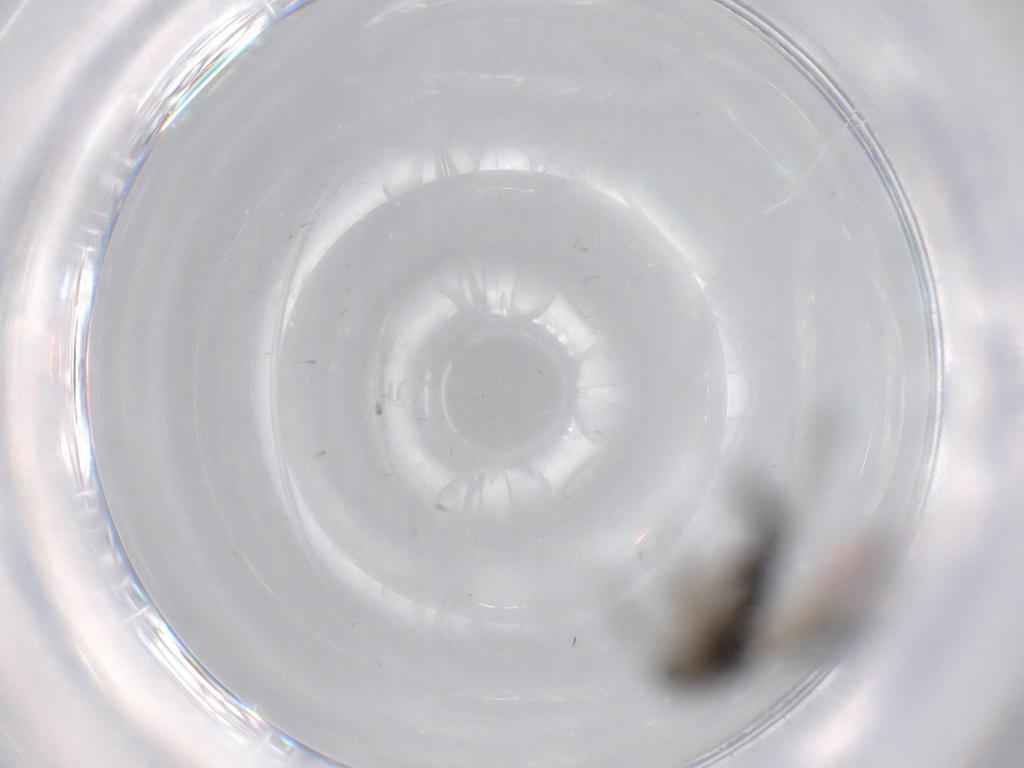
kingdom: Animalia
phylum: Arthropoda
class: Insecta
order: Diptera
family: Sciaridae
